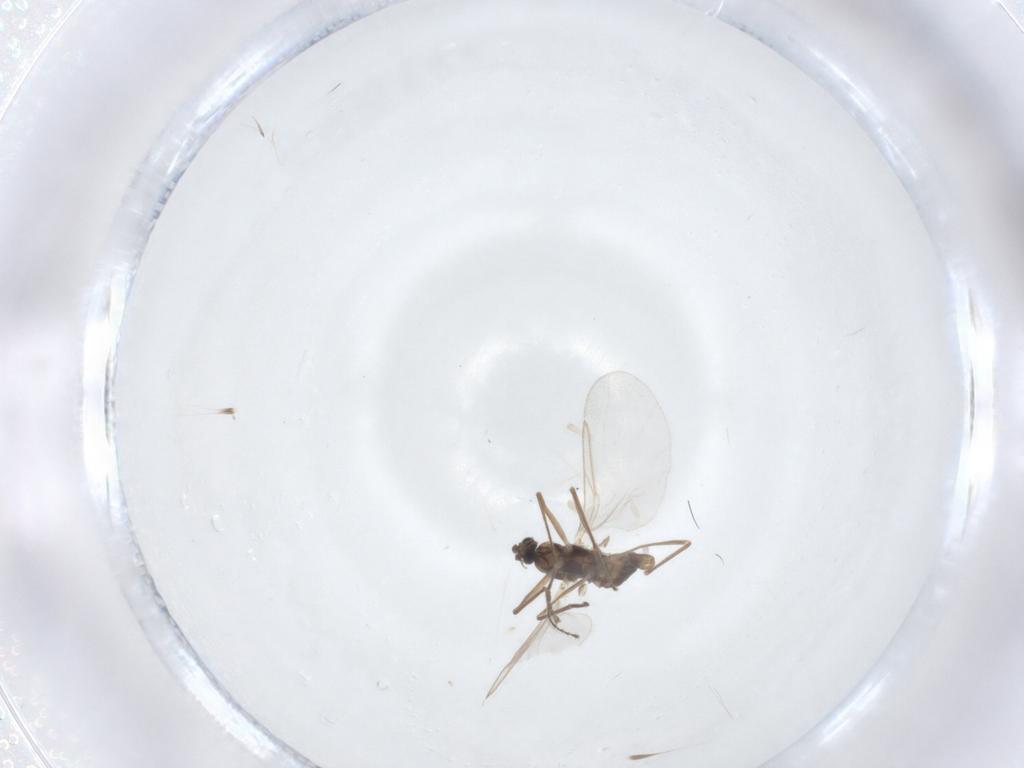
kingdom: Animalia
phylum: Arthropoda
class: Insecta
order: Diptera
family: Cecidomyiidae
